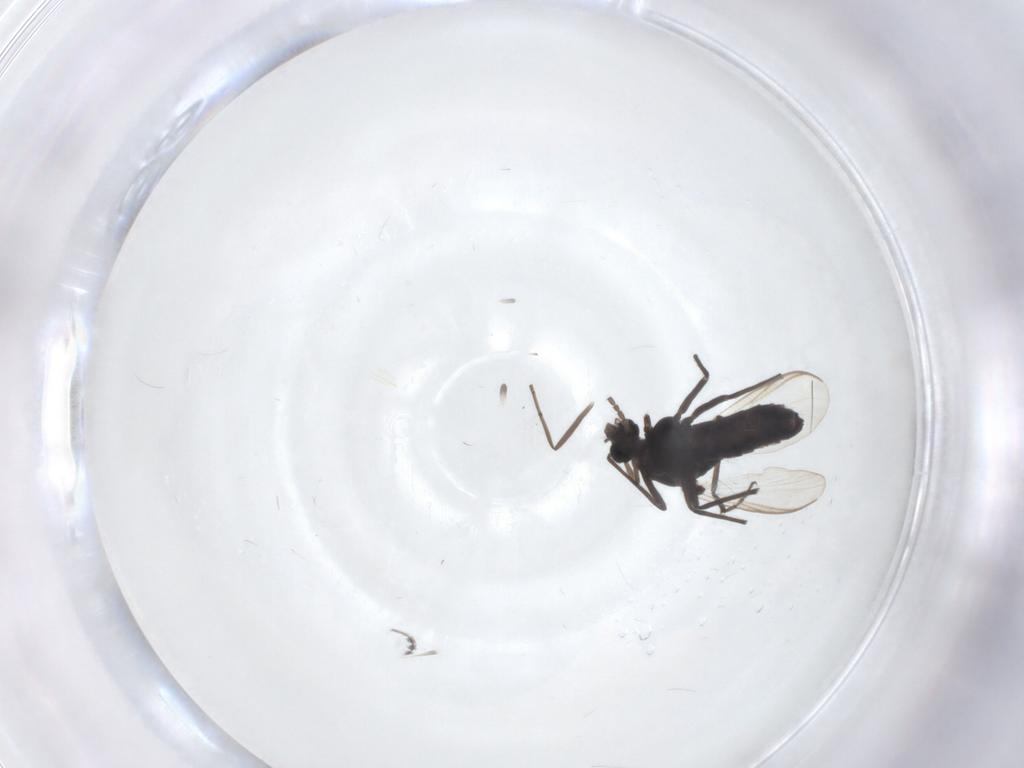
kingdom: Animalia
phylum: Arthropoda
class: Insecta
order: Diptera
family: Chironomidae
